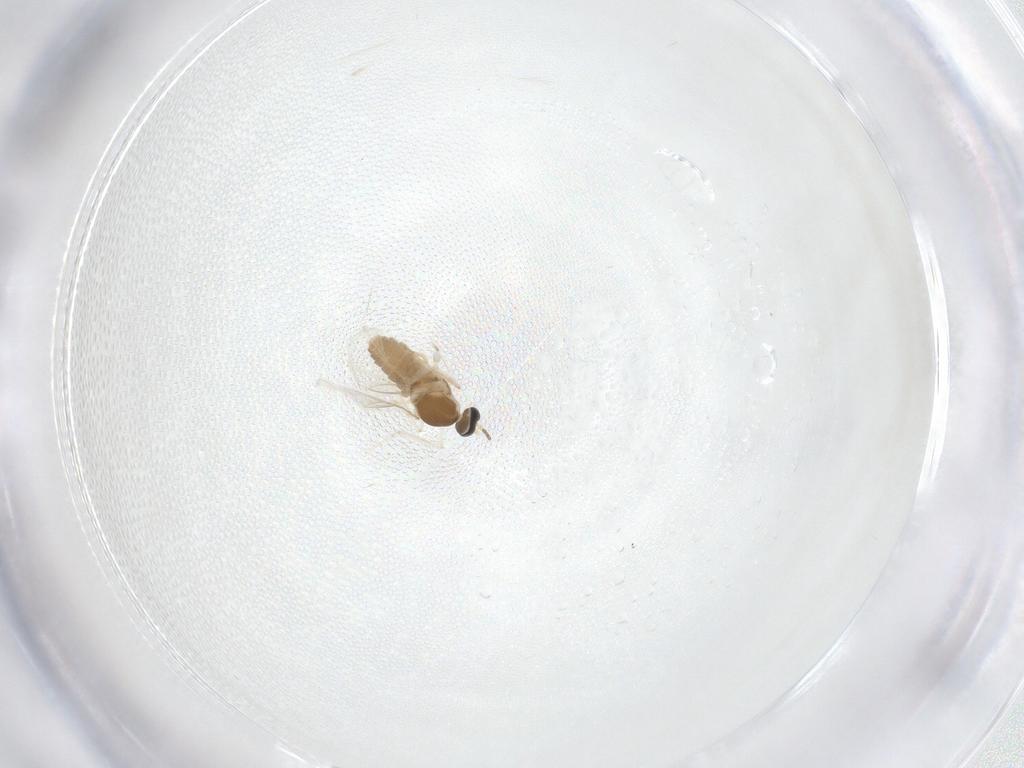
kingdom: Animalia
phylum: Arthropoda
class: Insecta
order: Diptera
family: Cecidomyiidae
